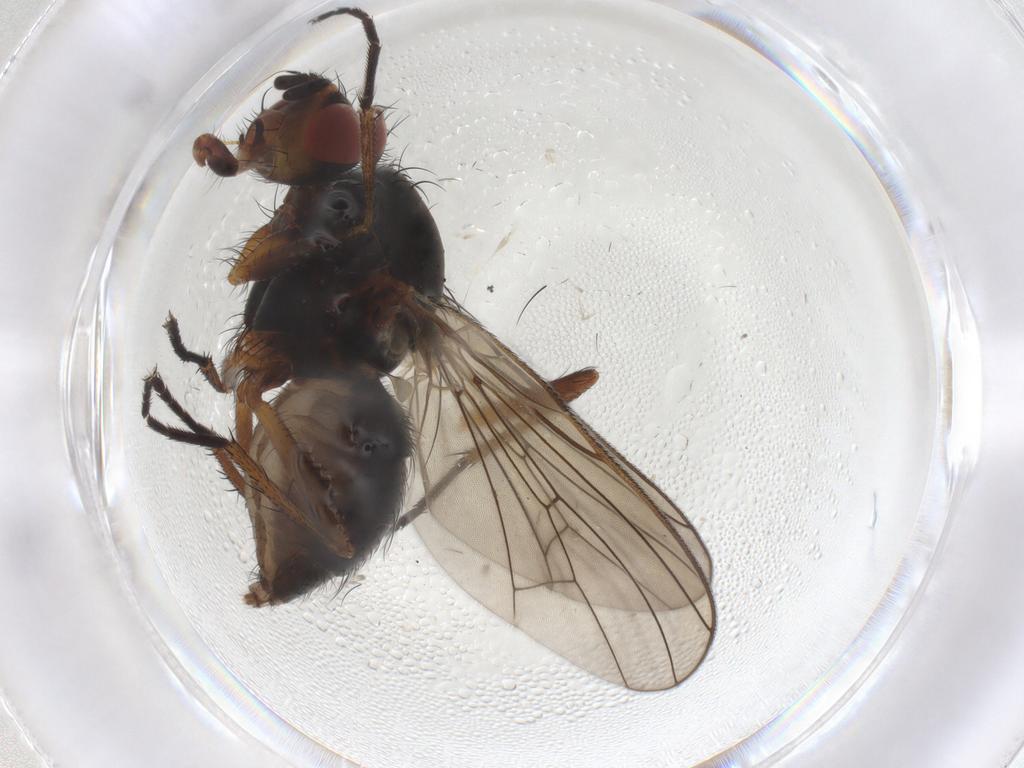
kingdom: Animalia
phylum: Arthropoda
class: Insecta
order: Diptera
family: Anthomyiidae
